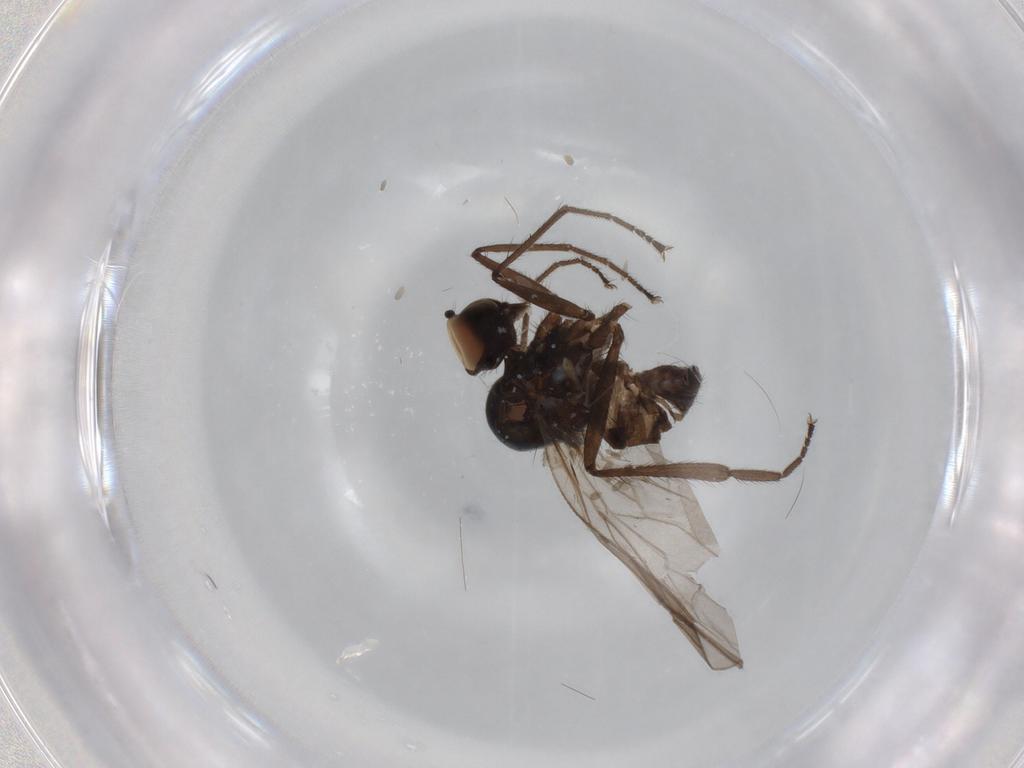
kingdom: Animalia
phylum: Arthropoda
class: Insecta
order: Diptera
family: Hybotidae
